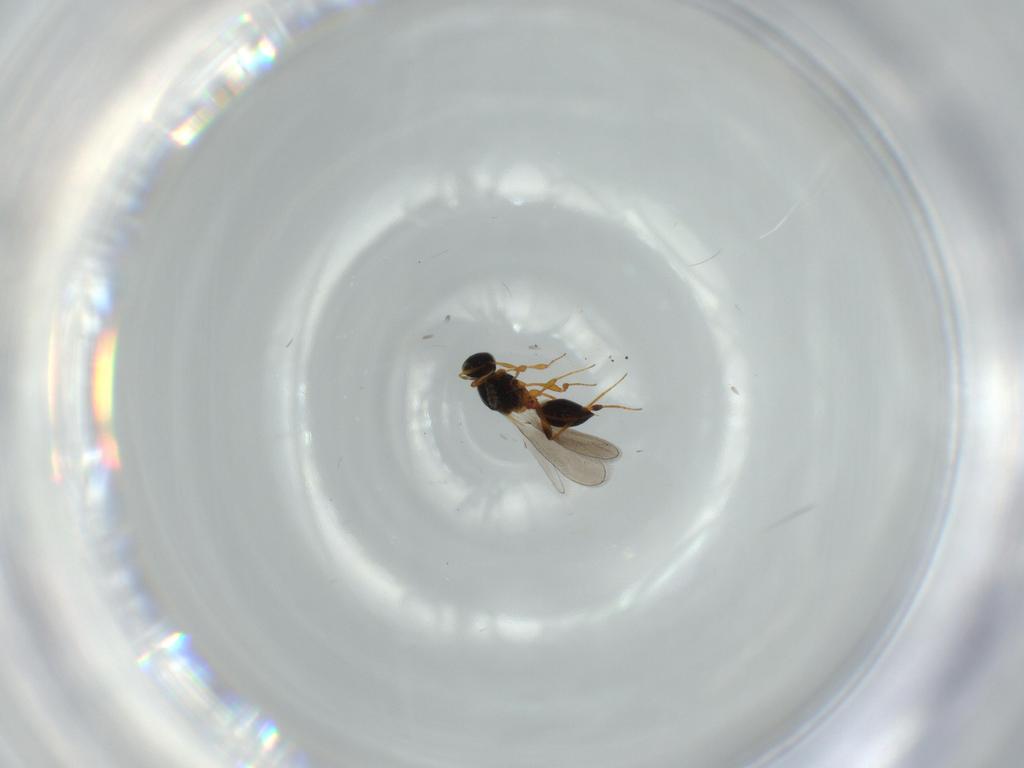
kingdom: Animalia
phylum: Arthropoda
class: Insecta
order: Hymenoptera
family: Platygastridae
